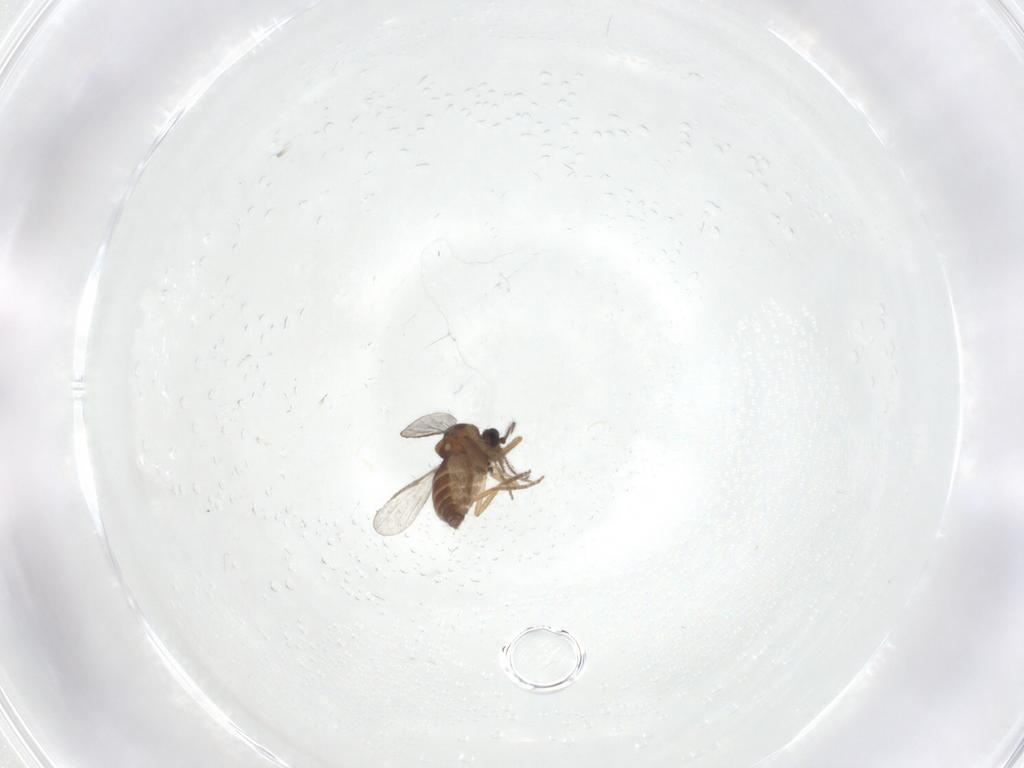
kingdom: Animalia
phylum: Arthropoda
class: Insecta
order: Diptera
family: Ceratopogonidae
